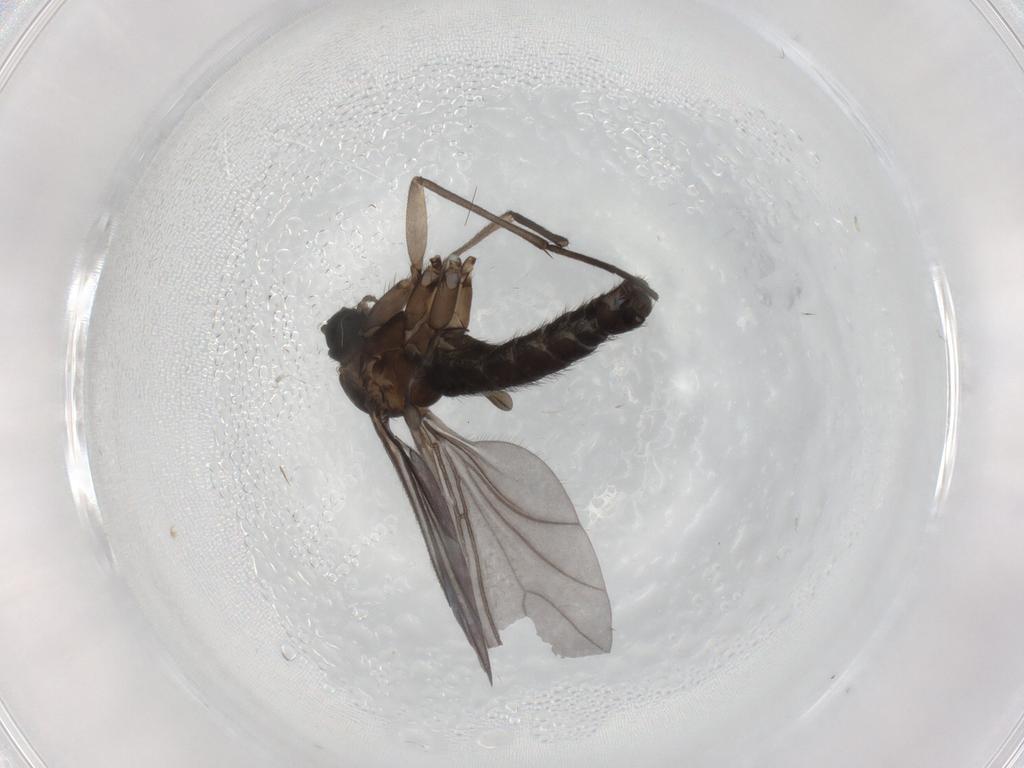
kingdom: Animalia
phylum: Arthropoda
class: Insecta
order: Diptera
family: Sciaridae
